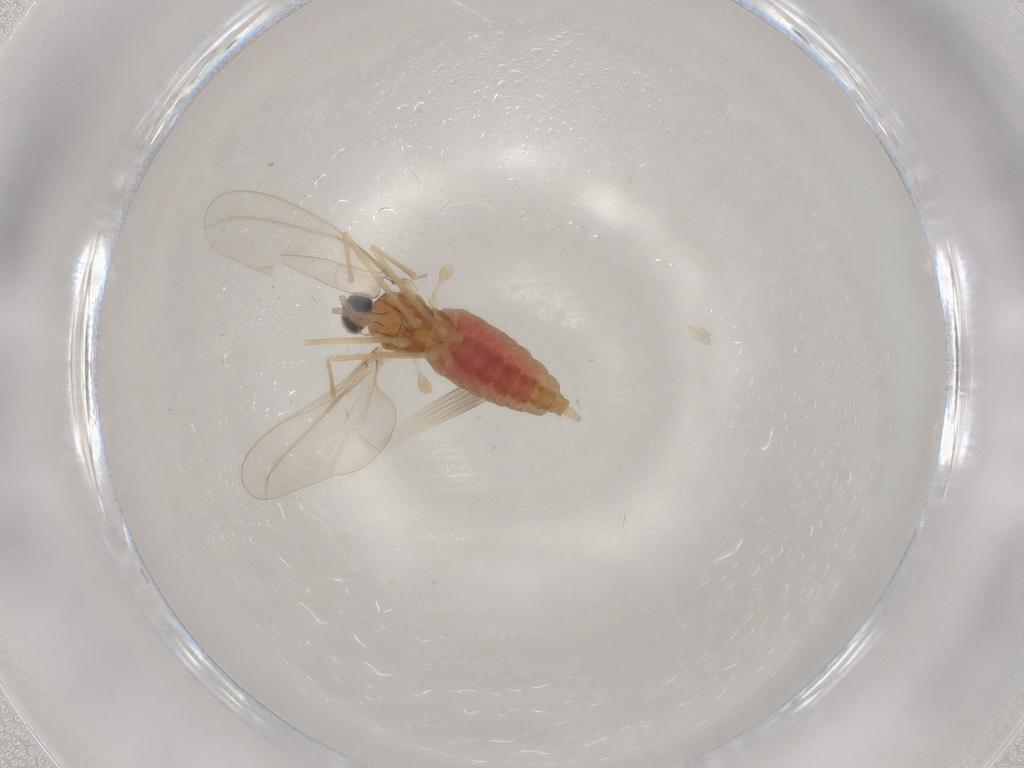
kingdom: Animalia
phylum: Arthropoda
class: Insecta
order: Diptera
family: Cecidomyiidae
